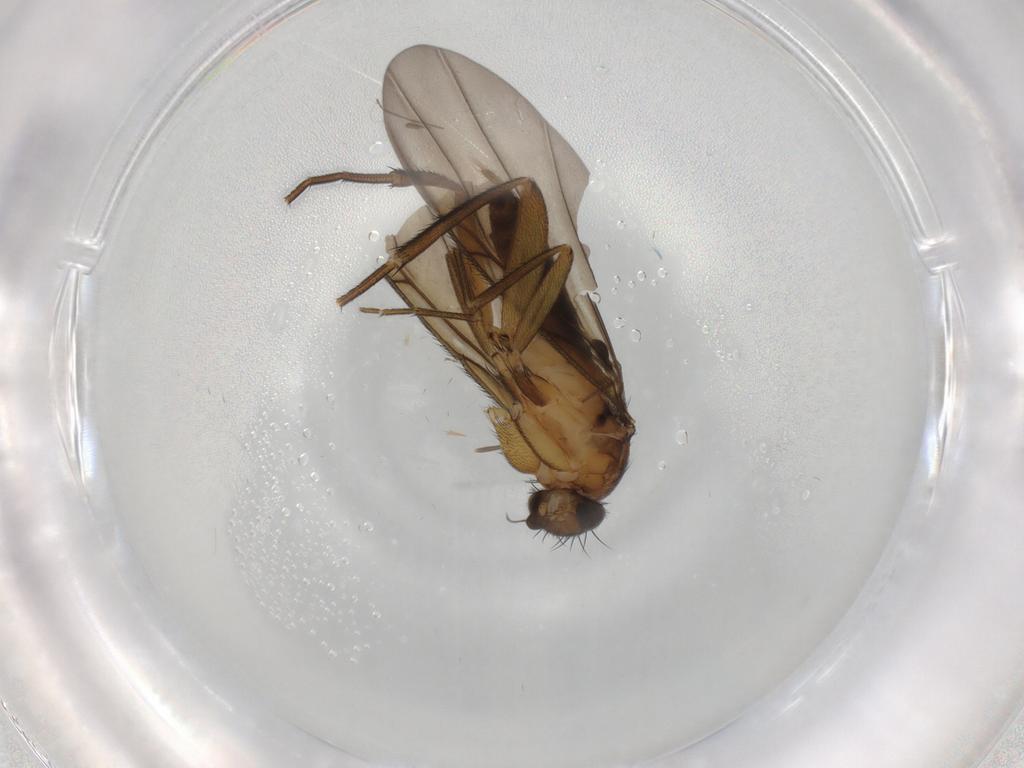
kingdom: Animalia
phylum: Arthropoda
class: Insecta
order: Diptera
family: Phoridae
